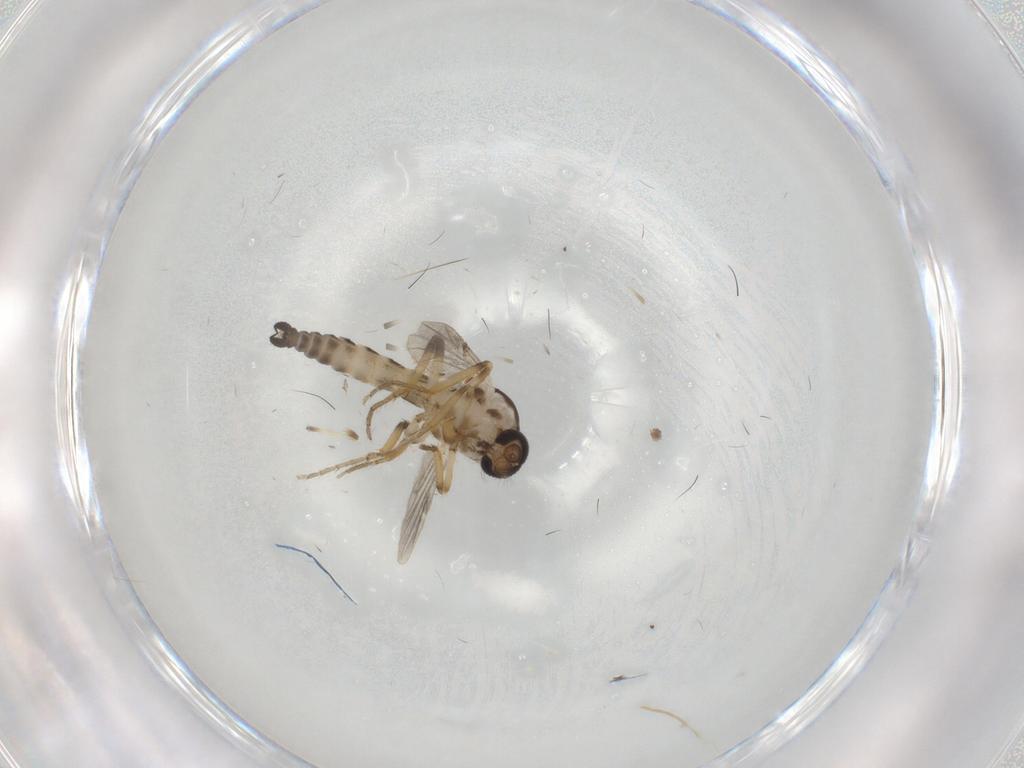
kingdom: Animalia
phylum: Arthropoda
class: Insecta
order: Diptera
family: Ceratopogonidae
